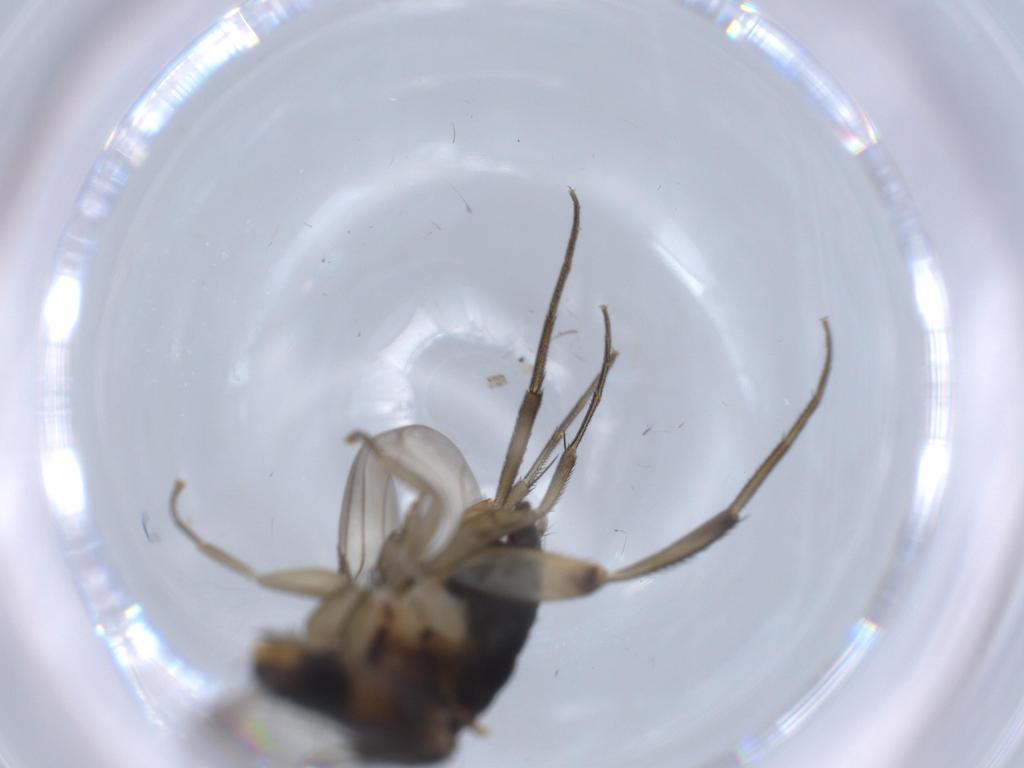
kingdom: Animalia
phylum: Arthropoda
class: Insecta
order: Diptera
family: Phoridae
